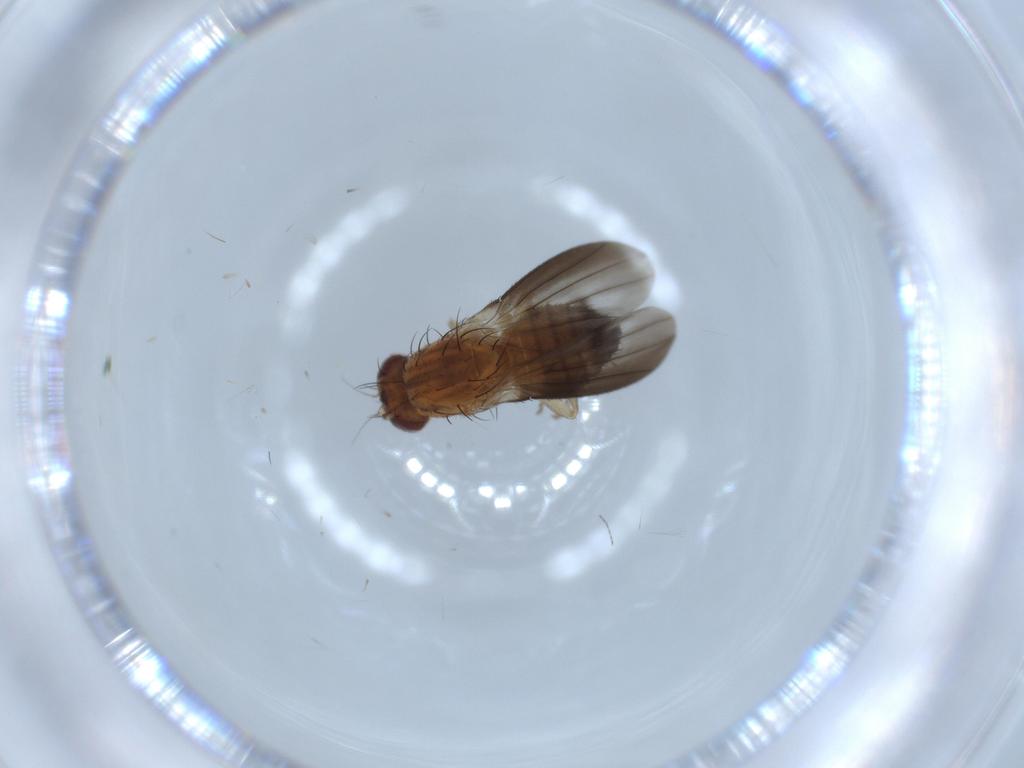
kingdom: Animalia
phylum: Arthropoda
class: Insecta
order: Diptera
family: Heleomyzidae
